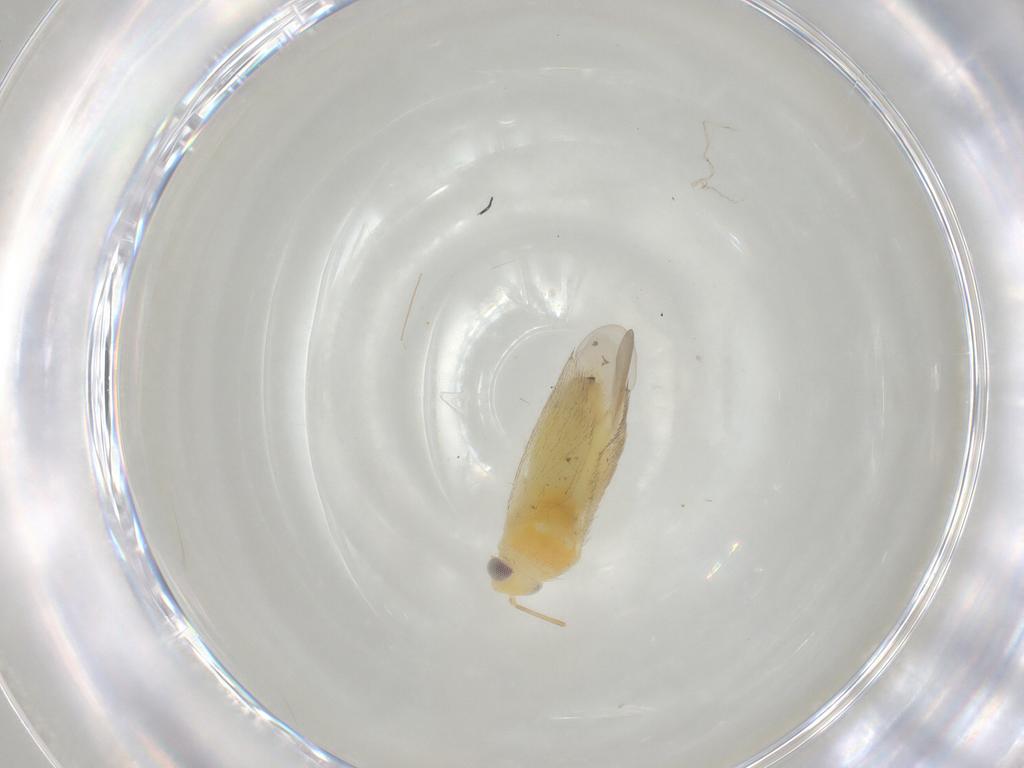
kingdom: Animalia
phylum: Arthropoda
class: Insecta
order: Hemiptera
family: Miridae
